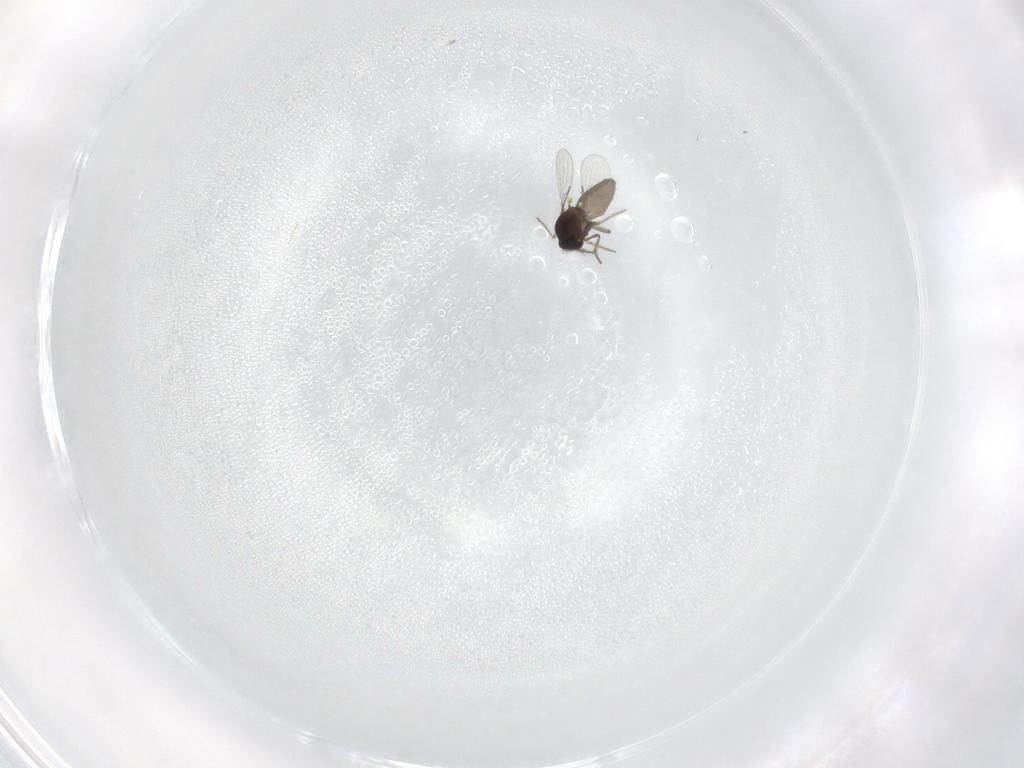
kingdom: Animalia
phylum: Arthropoda
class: Insecta
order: Diptera
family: Ceratopogonidae
